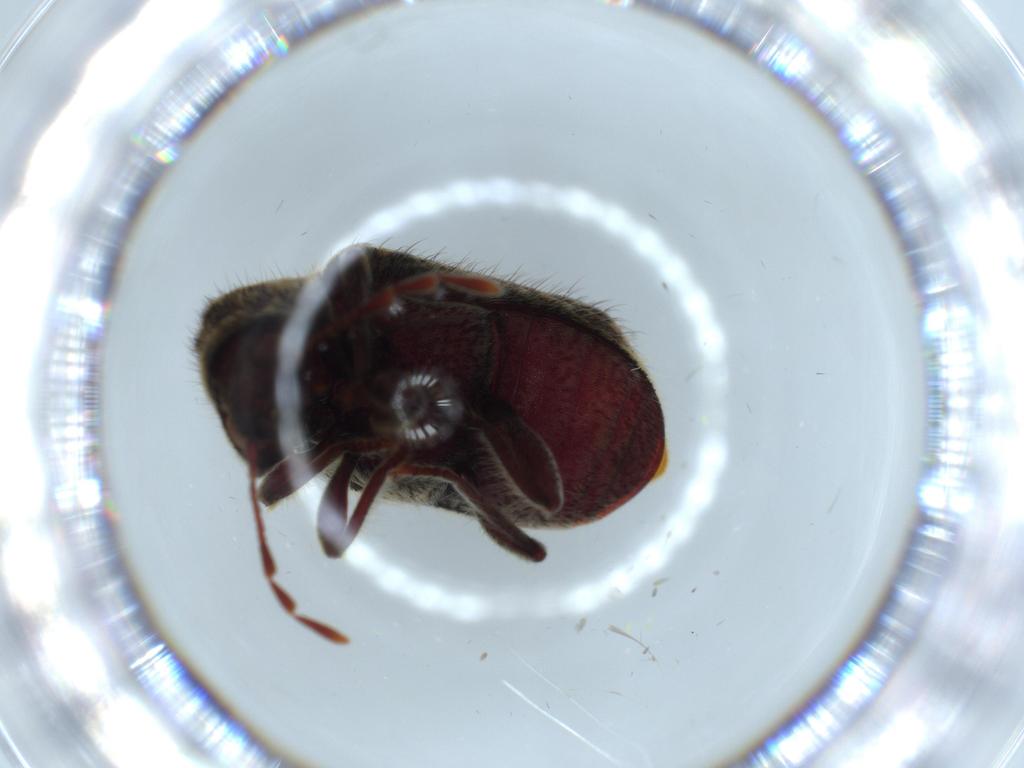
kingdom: Animalia
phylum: Arthropoda
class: Insecta
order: Coleoptera
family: Ptinidae
